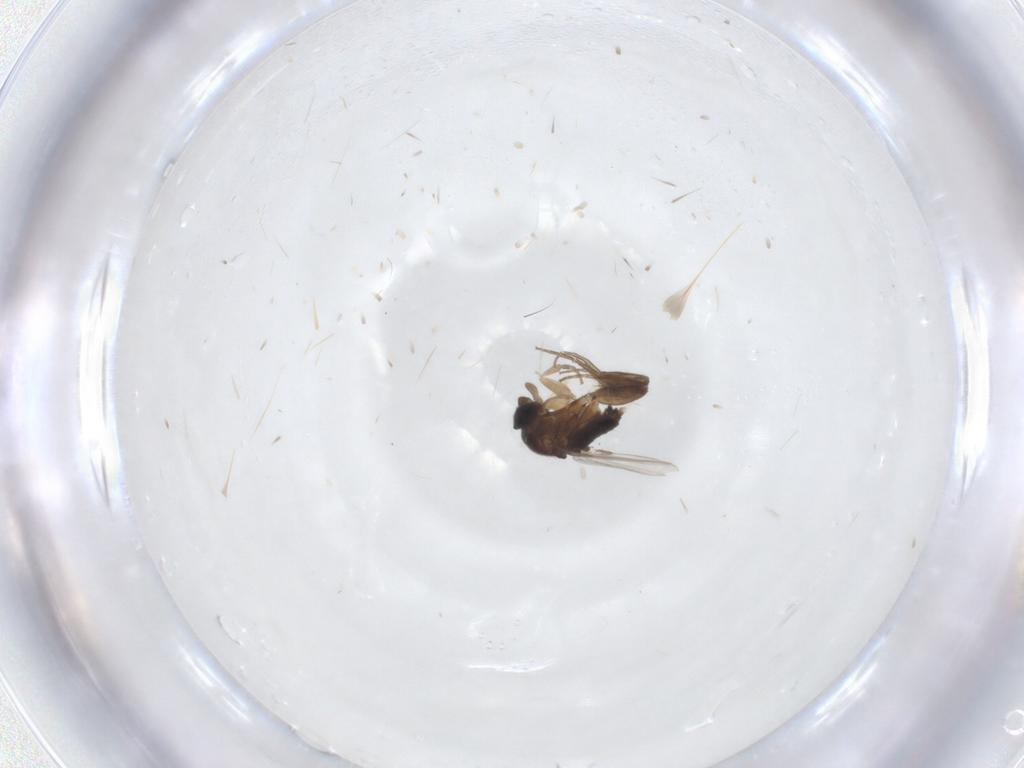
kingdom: Animalia
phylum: Arthropoda
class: Insecta
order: Diptera
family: Phoridae
